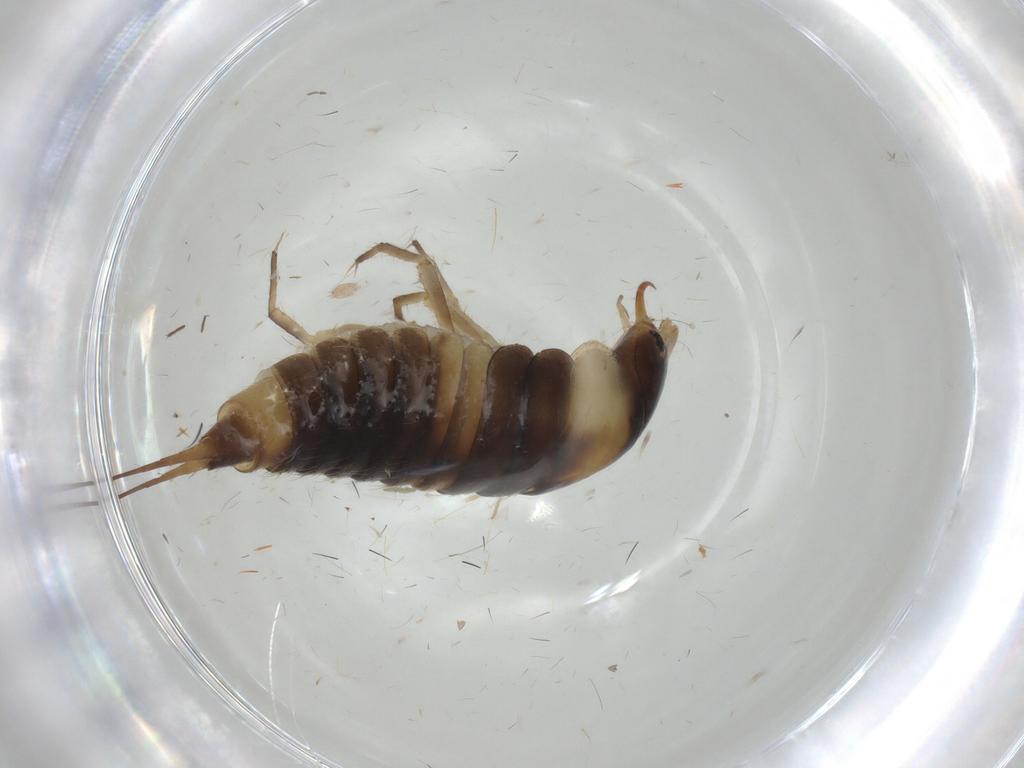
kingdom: Animalia
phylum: Arthropoda
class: Insecta
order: Coleoptera
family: Dytiscidae
